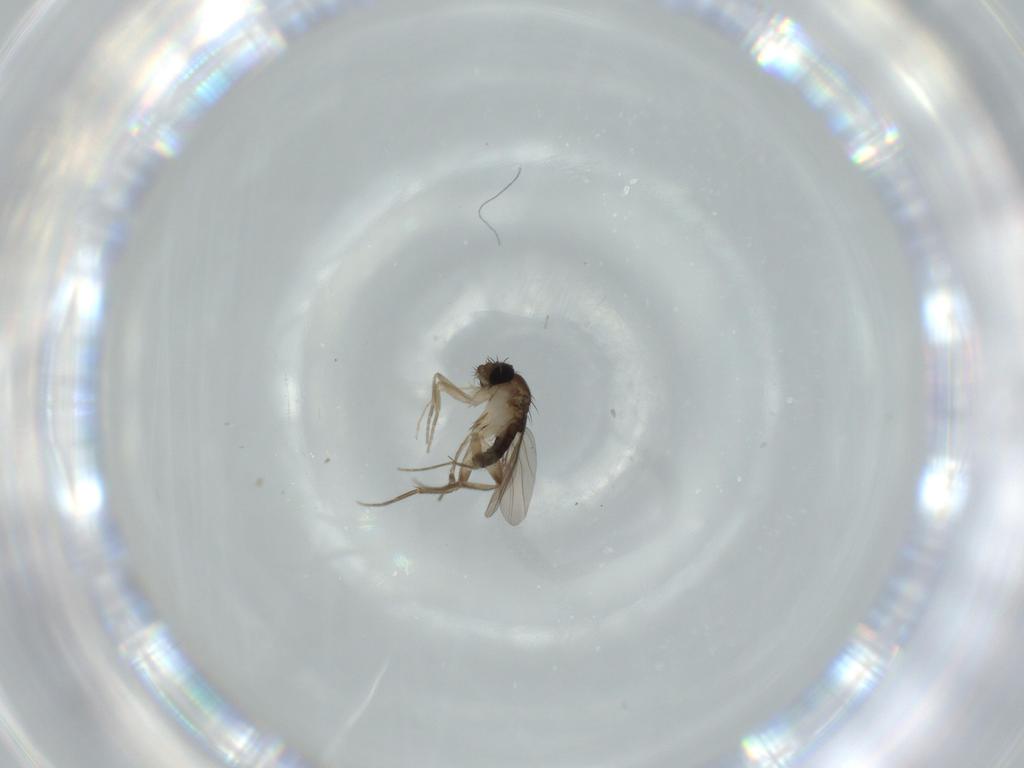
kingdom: Animalia
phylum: Arthropoda
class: Insecta
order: Diptera
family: Phoridae
